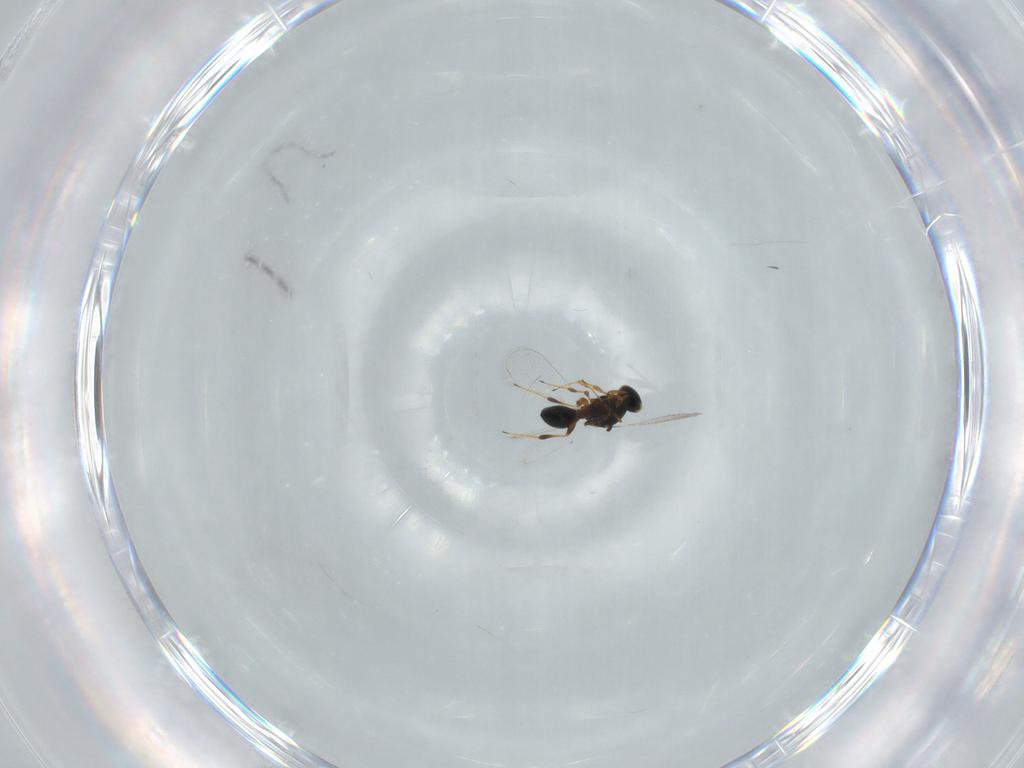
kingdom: Animalia
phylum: Arthropoda
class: Insecta
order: Hymenoptera
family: Platygastridae
